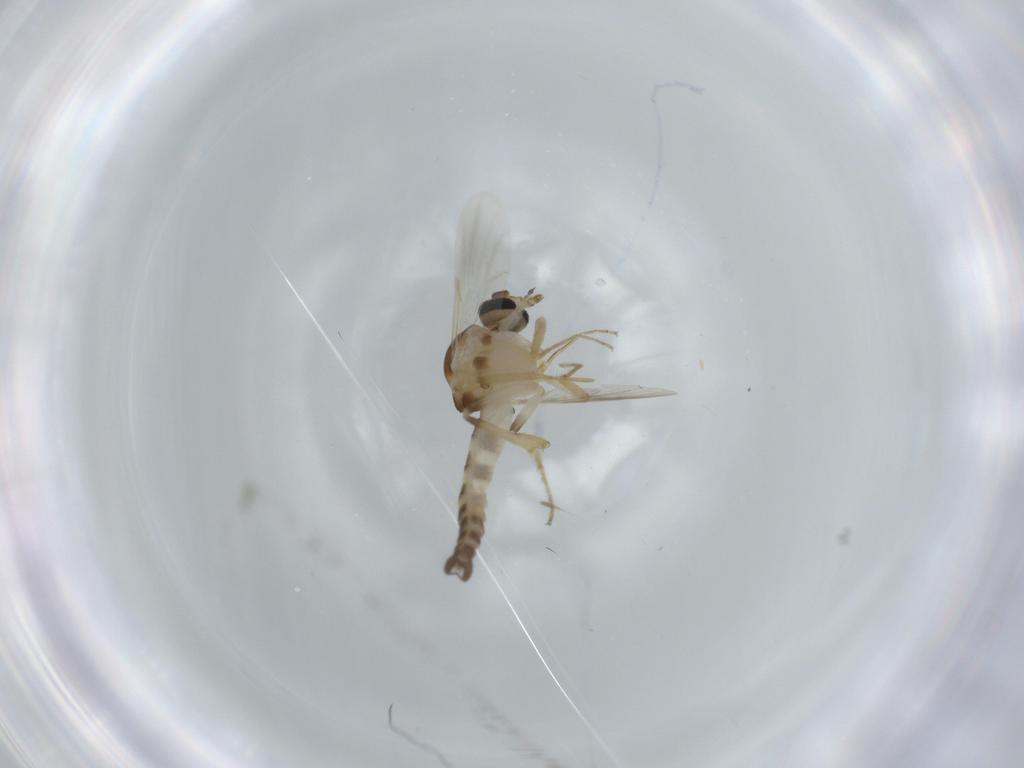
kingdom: Animalia
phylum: Arthropoda
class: Insecta
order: Diptera
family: Ceratopogonidae
